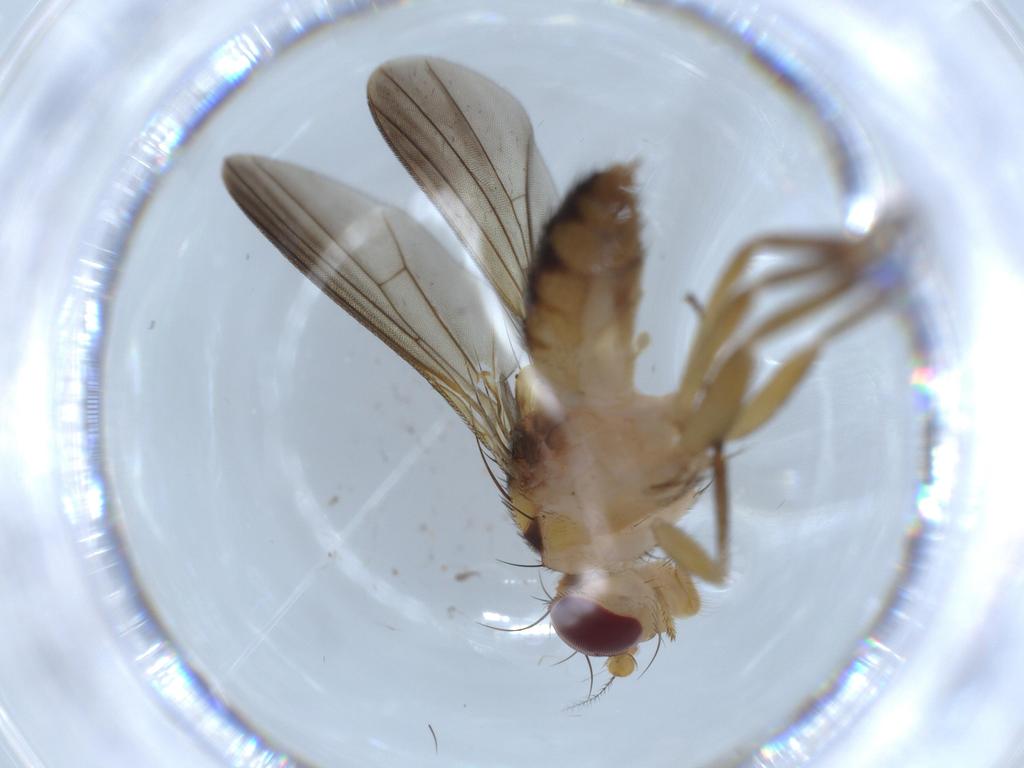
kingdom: Animalia
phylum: Arthropoda
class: Insecta
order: Diptera
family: Clusiidae
